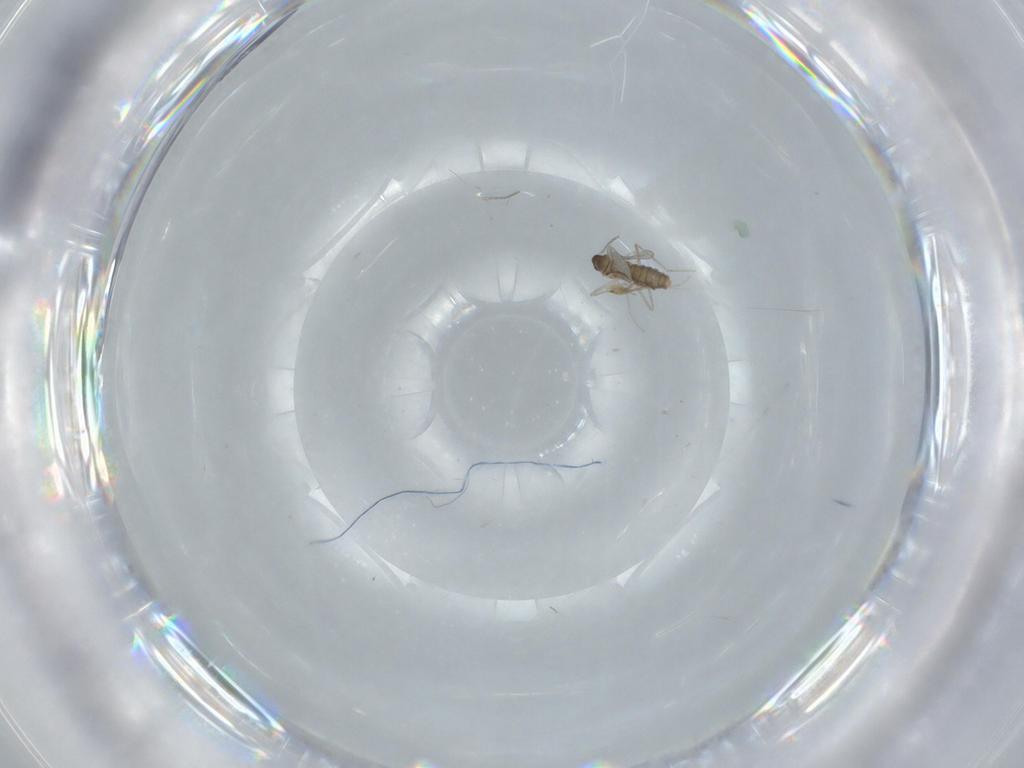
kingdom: Animalia
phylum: Arthropoda
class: Insecta
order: Diptera
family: Cecidomyiidae
